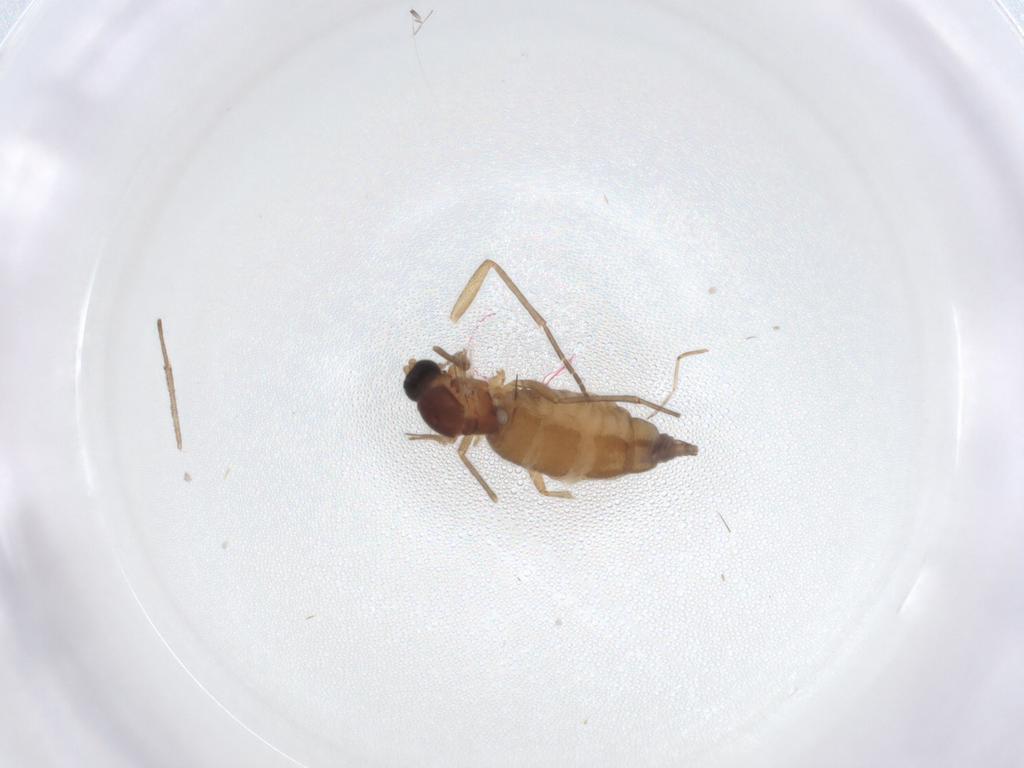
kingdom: Animalia
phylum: Arthropoda
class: Insecta
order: Diptera
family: Sciaridae
